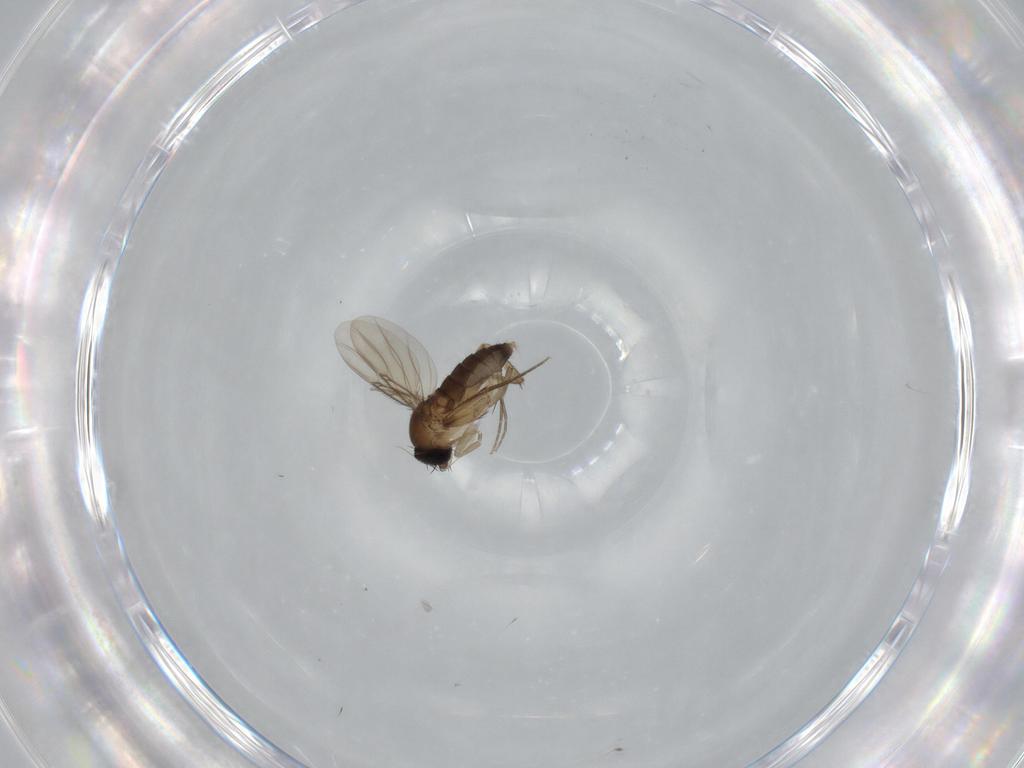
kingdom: Animalia
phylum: Arthropoda
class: Insecta
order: Diptera
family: Phoridae
